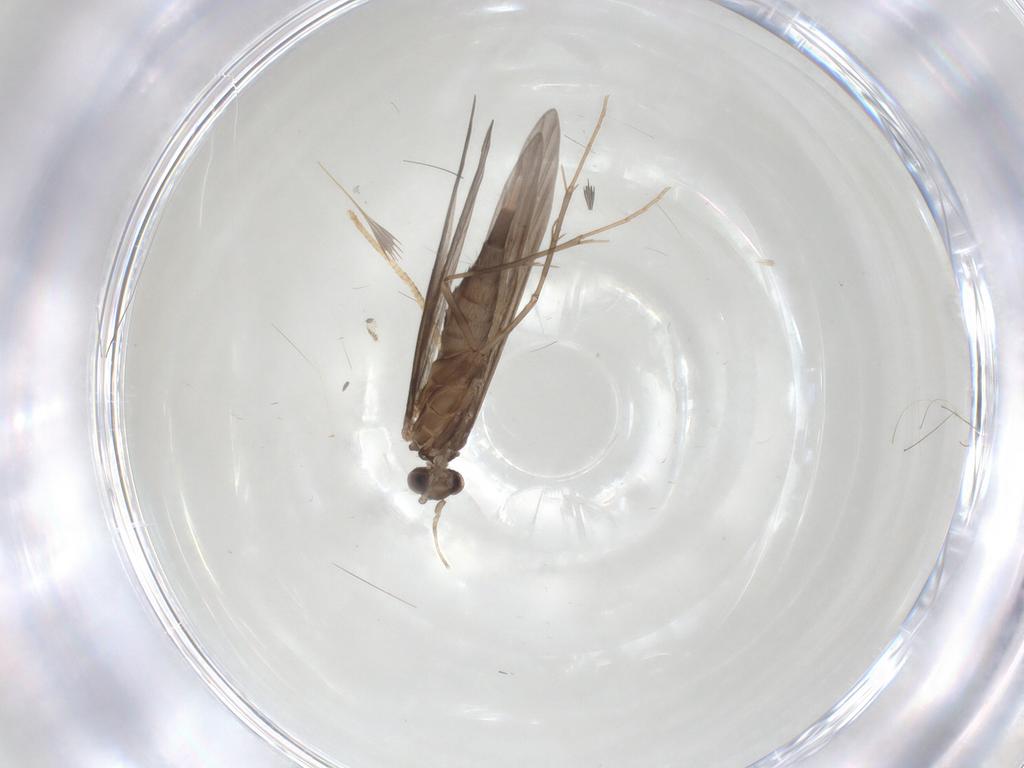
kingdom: Animalia
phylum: Arthropoda
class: Insecta
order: Trichoptera
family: Xiphocentronidae
